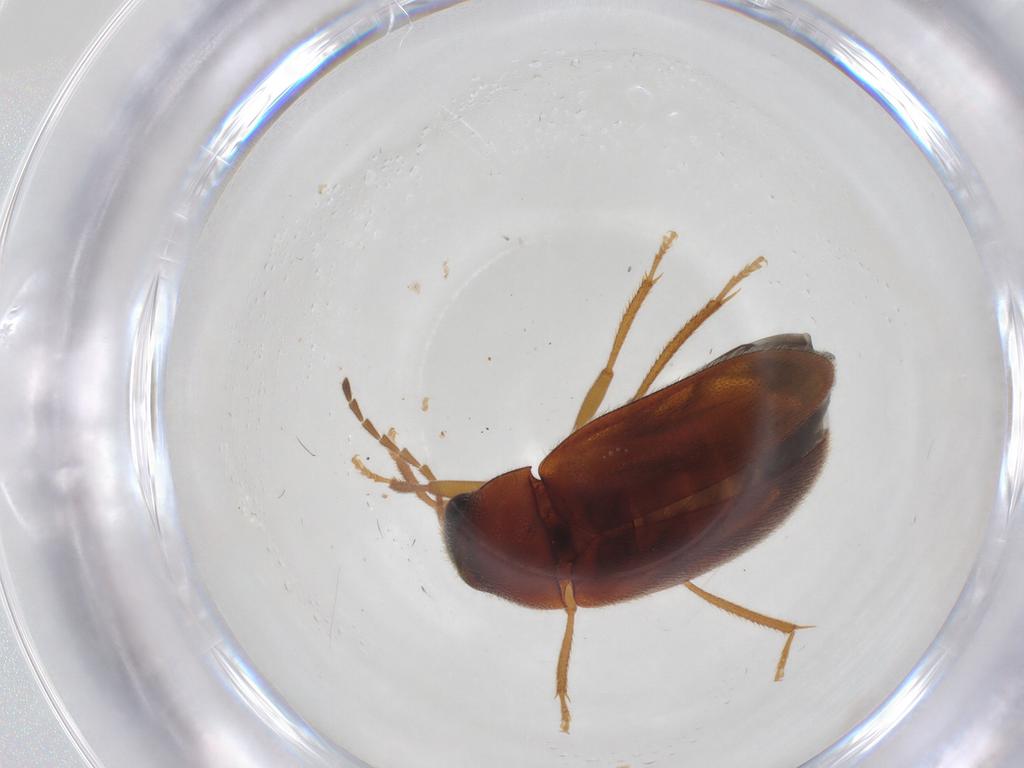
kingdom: Animalia
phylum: Arthropoda
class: Insecta
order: Coleoptera
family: Ptilodactylidae
